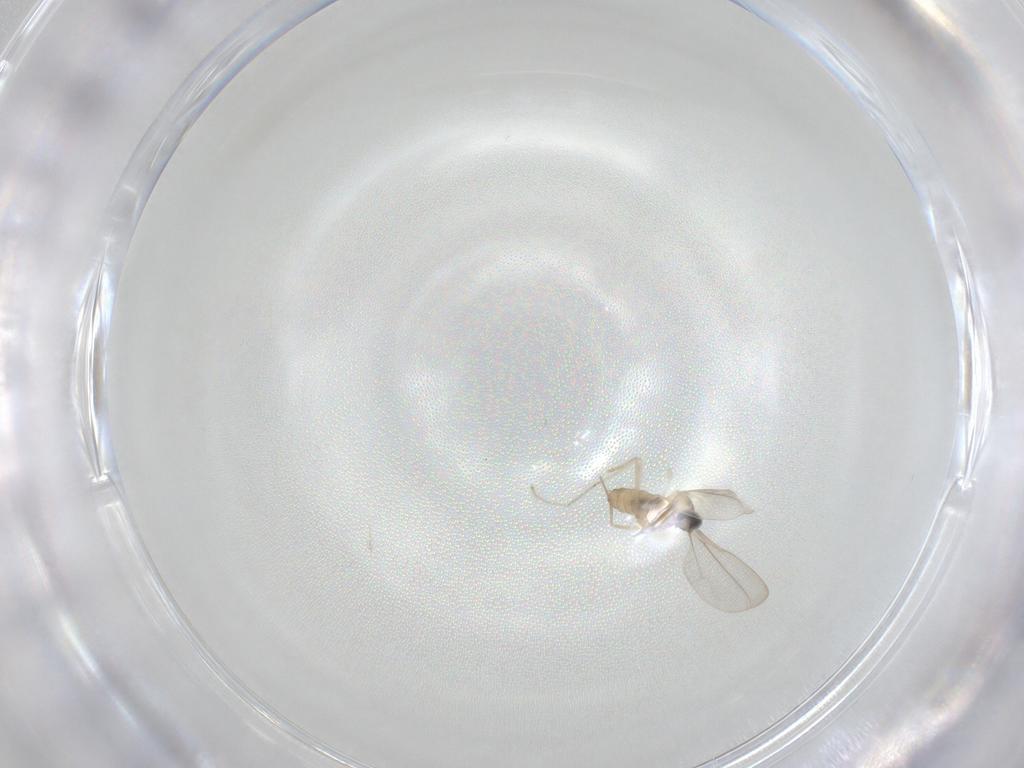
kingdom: Animalia
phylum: Arthropoda
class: Insecta
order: Diptera
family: Cecidomyiidae
